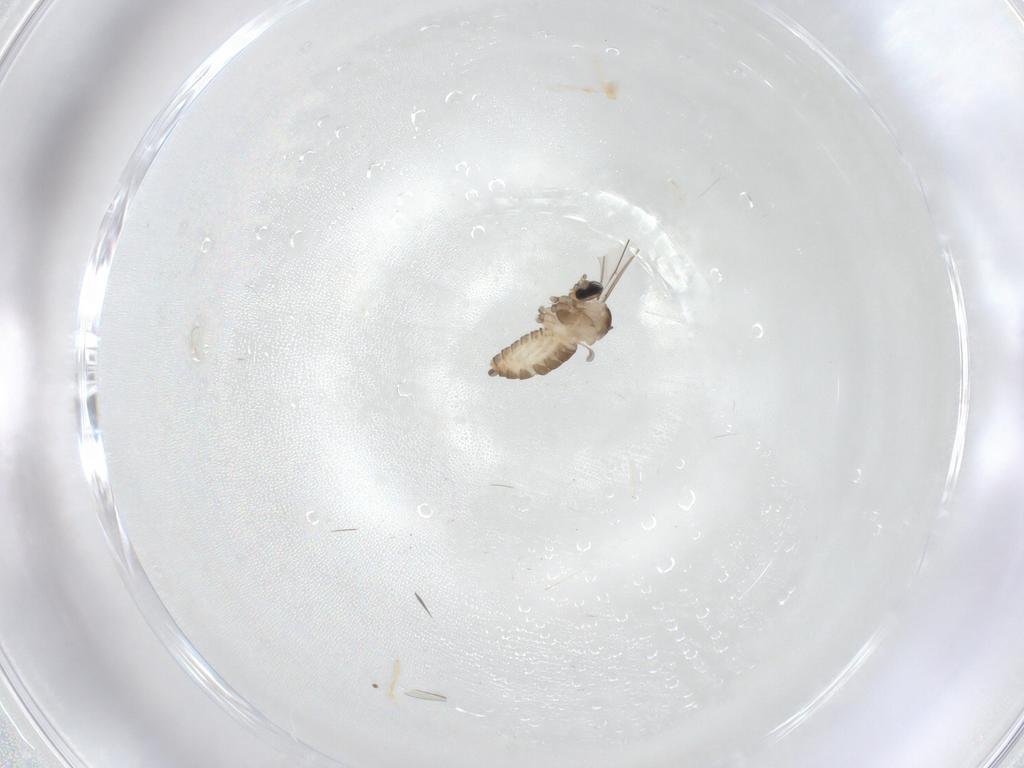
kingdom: Animalia
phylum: Arthropoda
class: Insecta
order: Diptera
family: Cecidomyiidae
